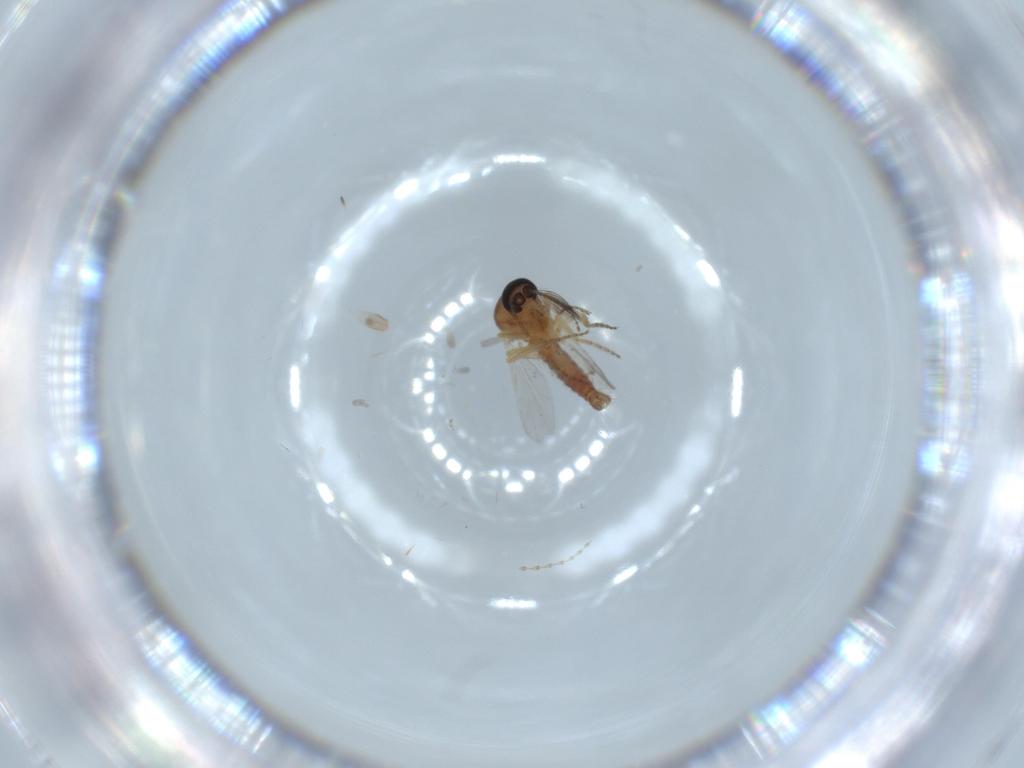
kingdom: Animalia
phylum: Arthropoda
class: Insecta
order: Diptera
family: Ceratopogonidae
